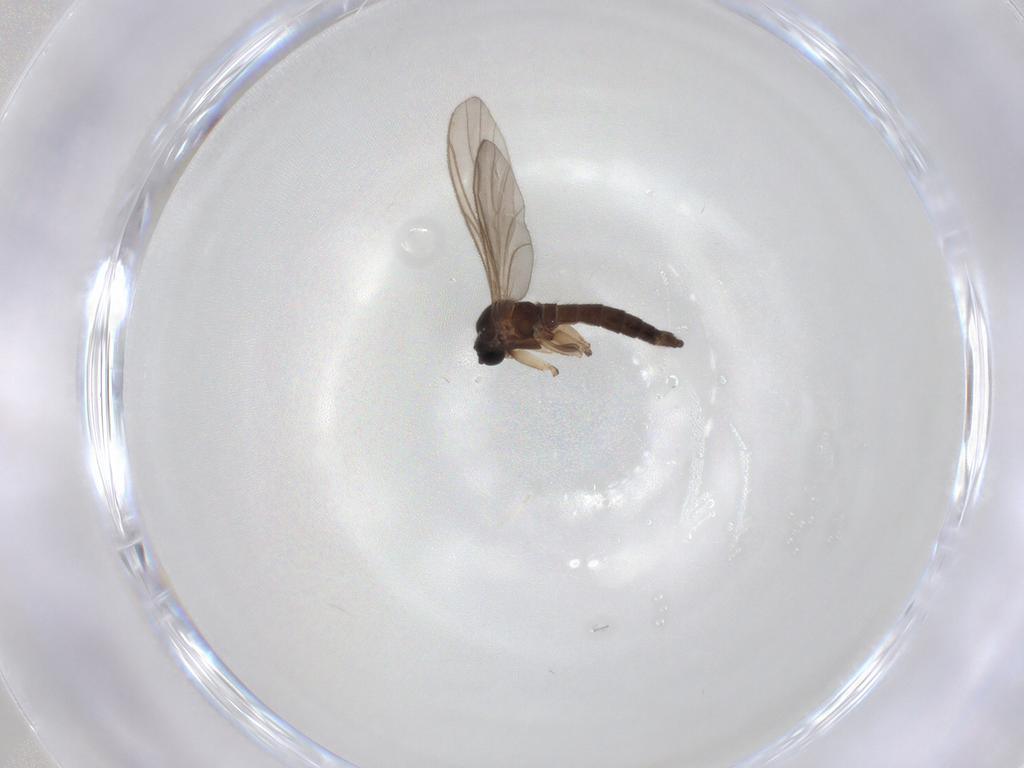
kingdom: Animalia
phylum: Arthropoda
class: Insecta
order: Diptera
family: Sciaridae
